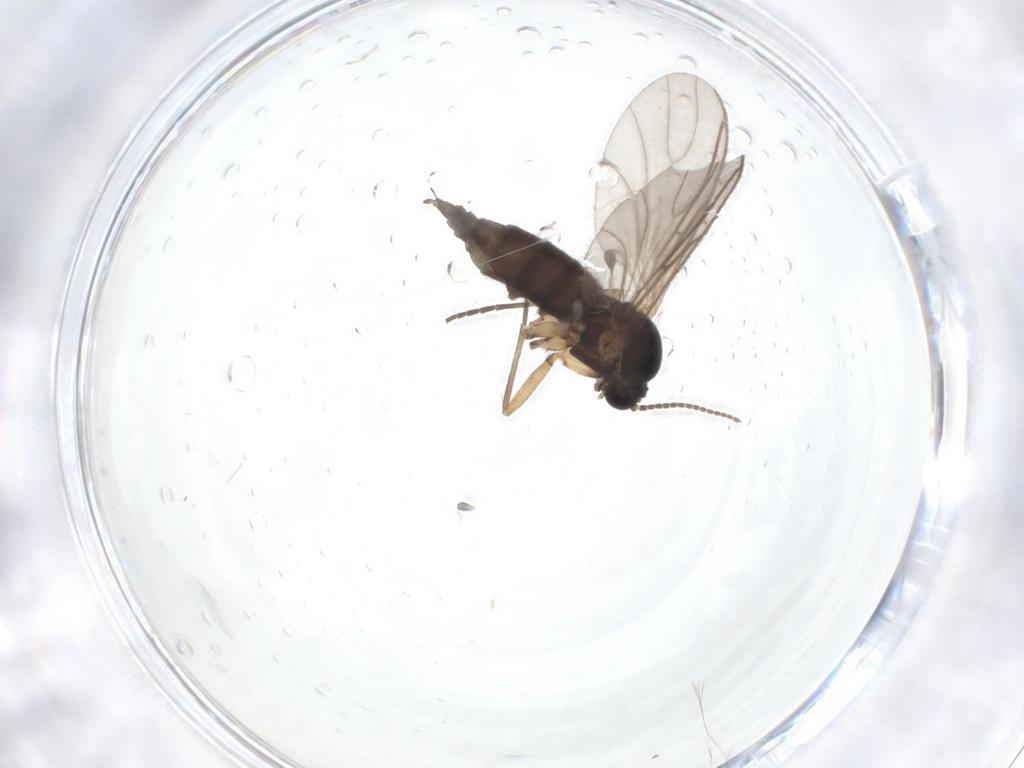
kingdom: Animalia
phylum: Arthropoda
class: Insecta
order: Diptera
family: Sciaridae
